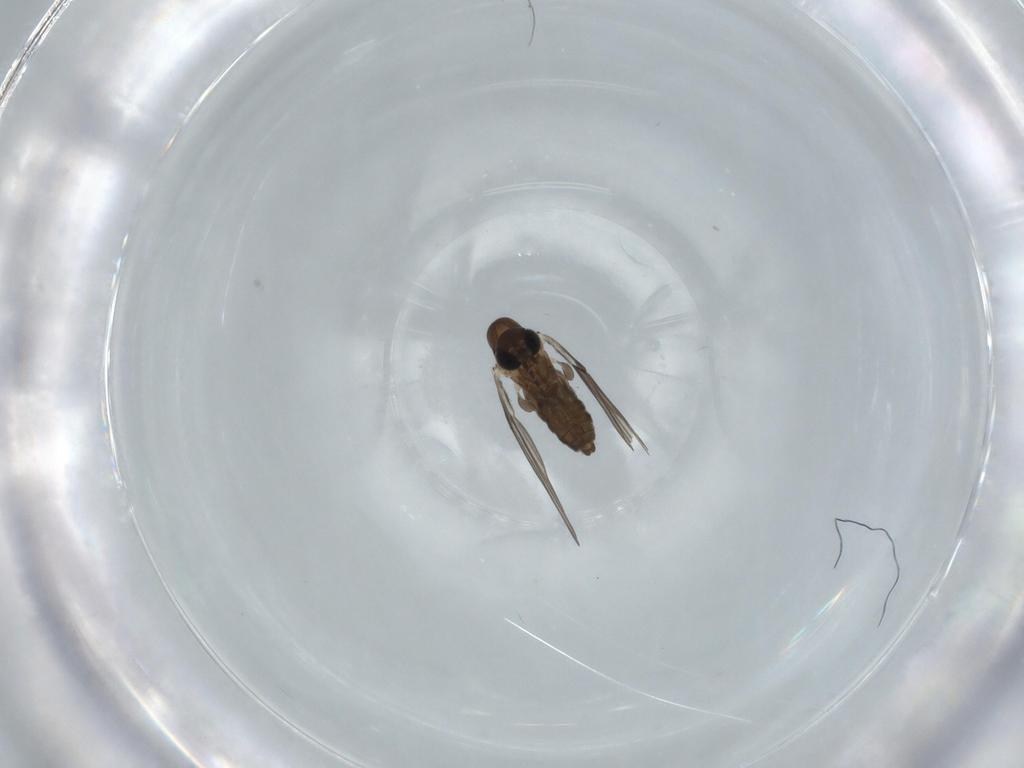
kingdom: Animalia
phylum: Arthropoda
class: Insecta
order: Diptera
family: Psychodidae
